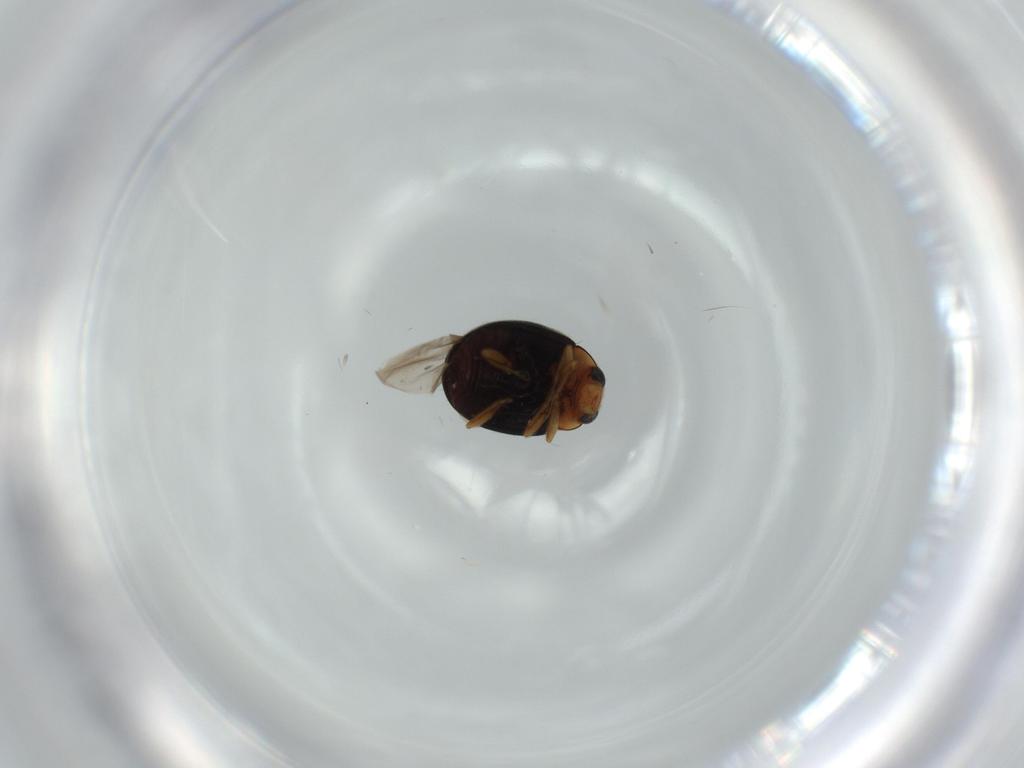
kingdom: Animalia
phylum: Arthropoda
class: Insecta
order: Coleoptera
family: Coccinellidae
